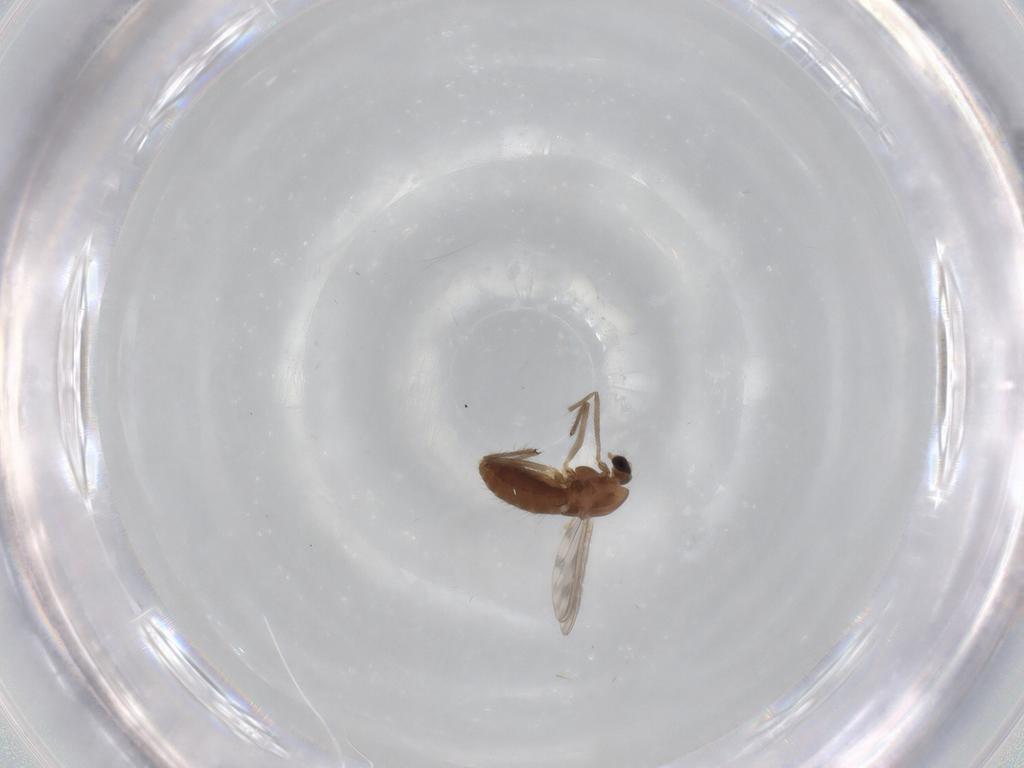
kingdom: Animalia
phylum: Arthropoda
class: Insecta
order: Diptera
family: Chironomidae
